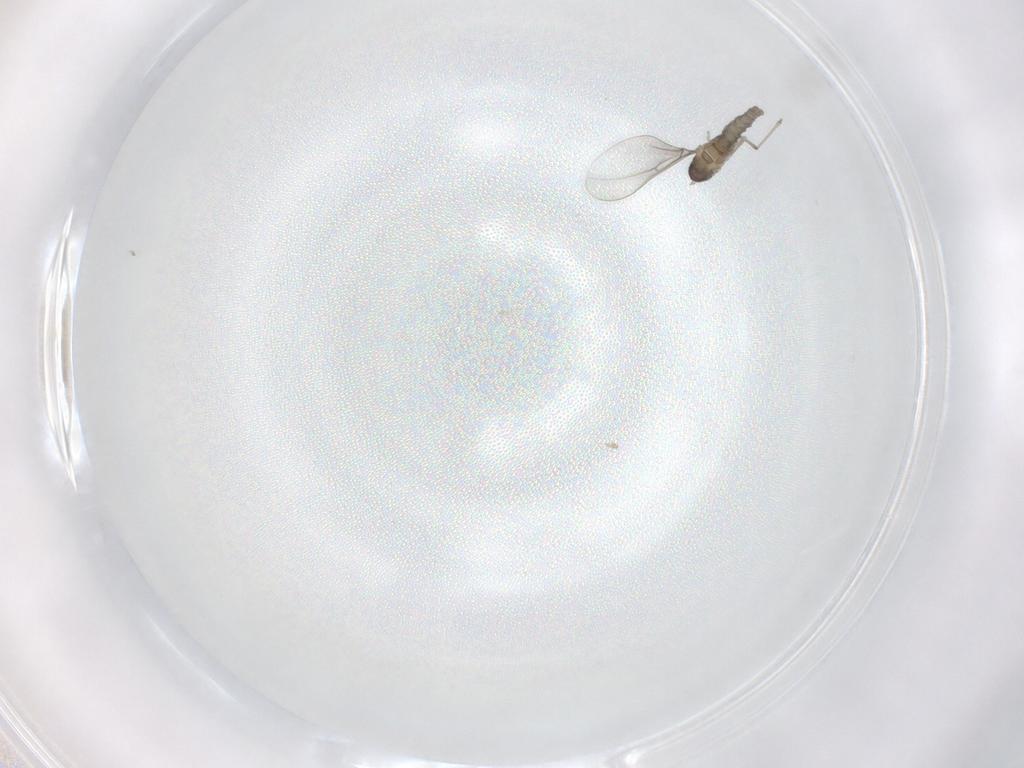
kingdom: Animalia
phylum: Arthropoda
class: Insecta
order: Diptera
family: Cecidomyiidae
